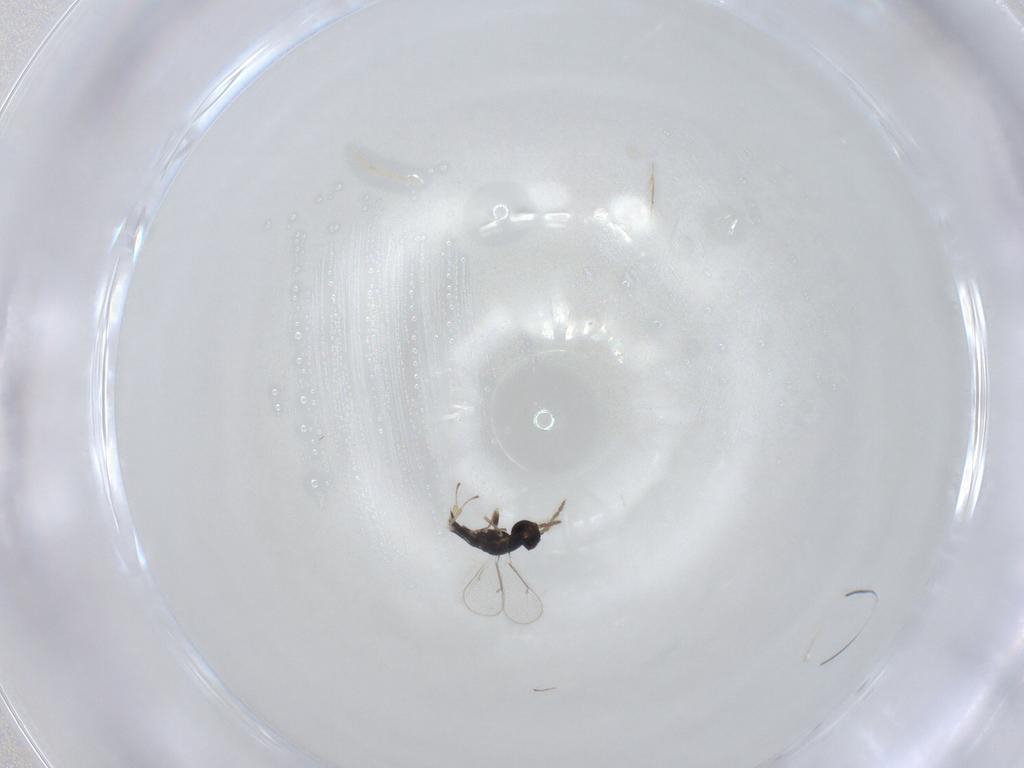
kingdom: Animalia
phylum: Arthropoda
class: Insecta
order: Hymenoptera
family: Eulophidae
